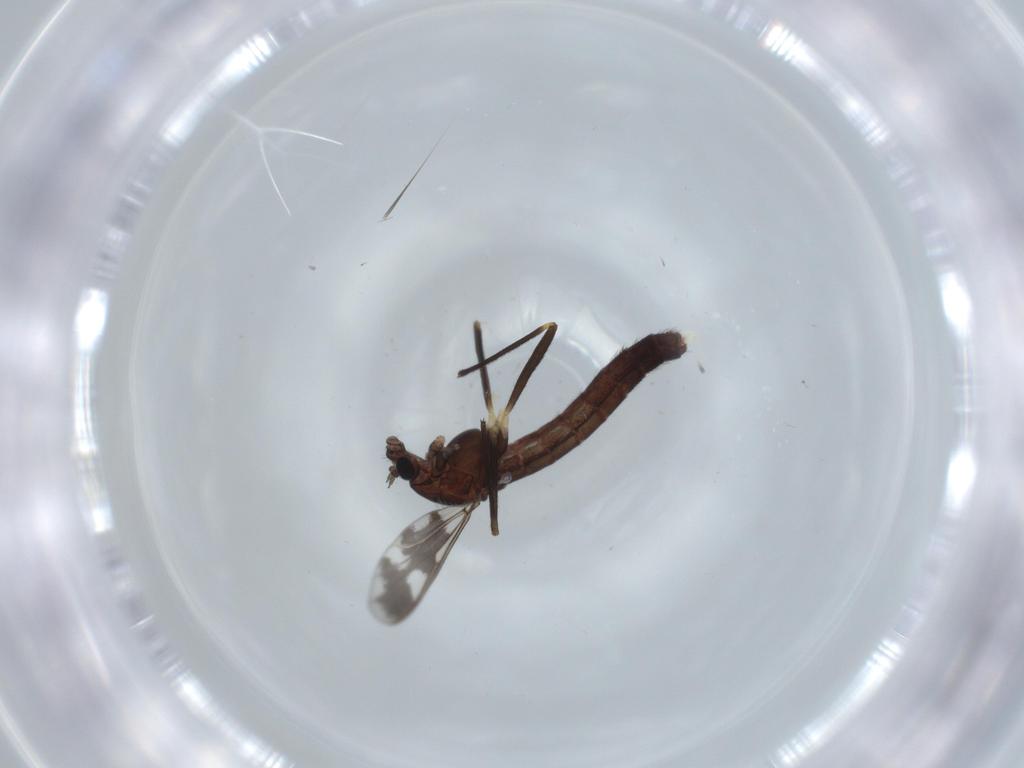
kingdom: Animalia
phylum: Arthropoda
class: Insecta
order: Diptera
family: Chironomidae
